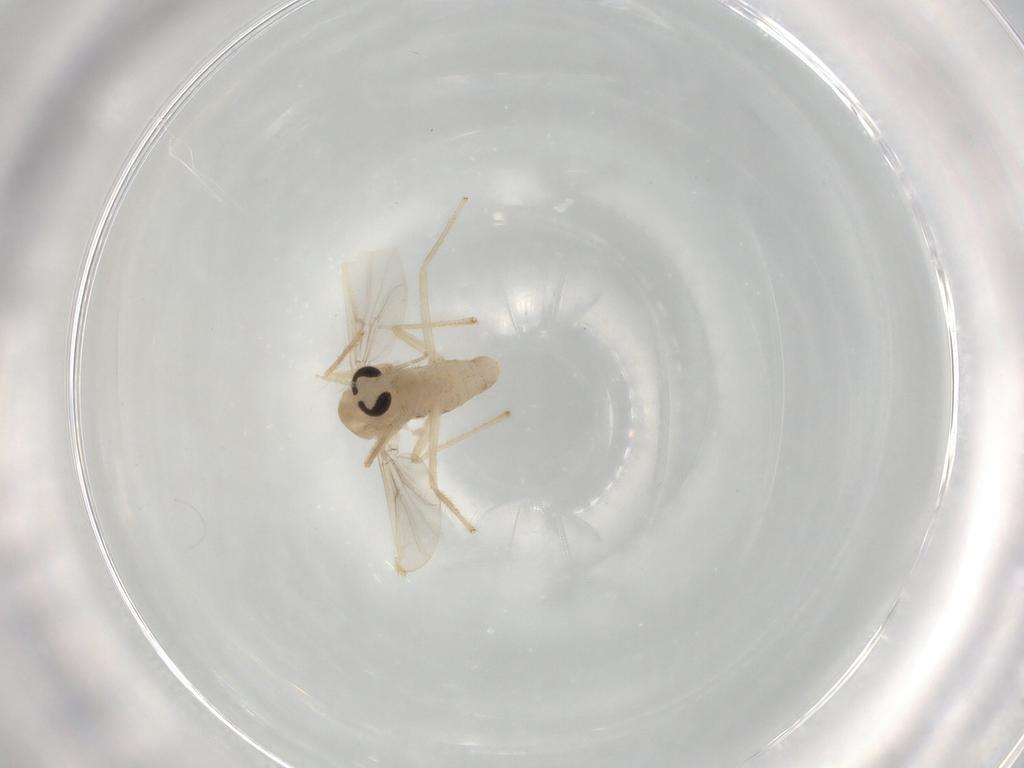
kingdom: Animalia
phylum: Arthropoda
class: Insecta
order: Diptera
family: Chironomidae
